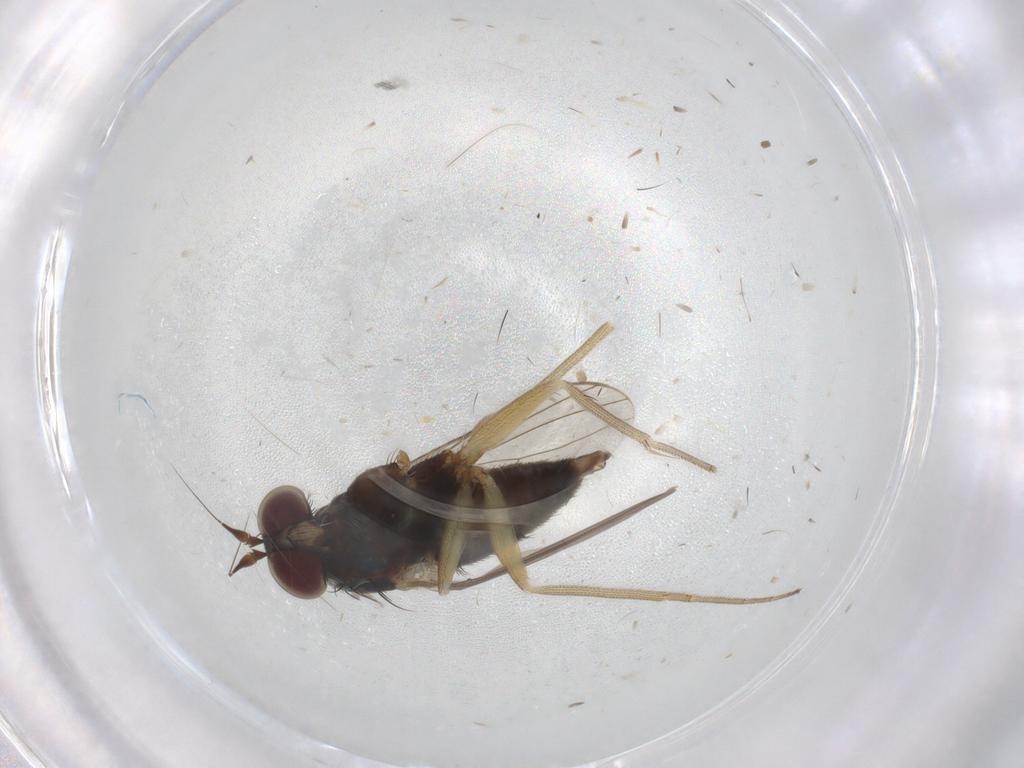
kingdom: Animalia
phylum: Arthropoda
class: Insecta
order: Diptera
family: Dolichopodidae
